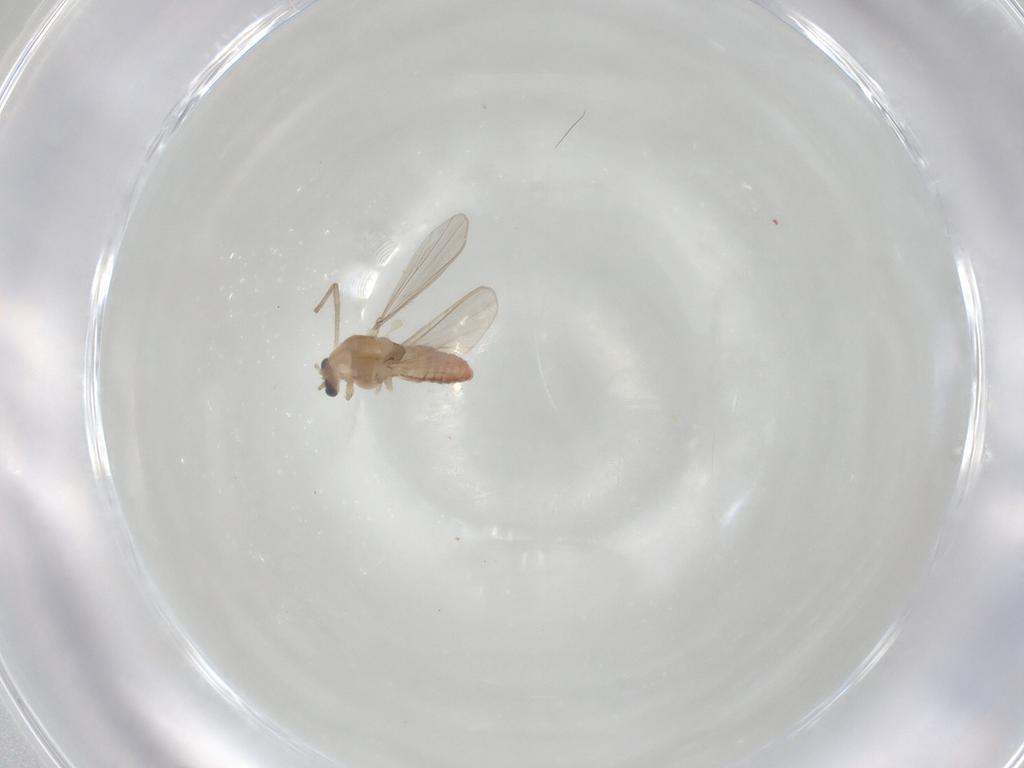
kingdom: Animalia
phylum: Arthropoda
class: Insecta
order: Diptera
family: Chironomidae
